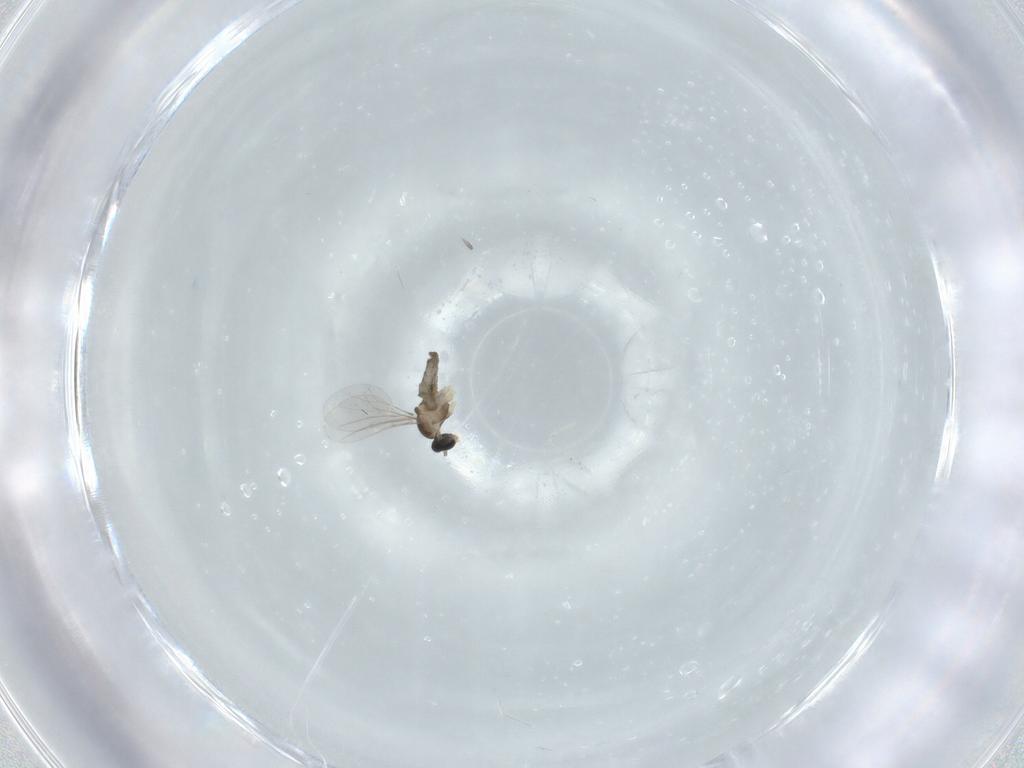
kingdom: Animalia
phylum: Arthropoda
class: Insecta
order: Diptera
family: Cecidomyiidae
